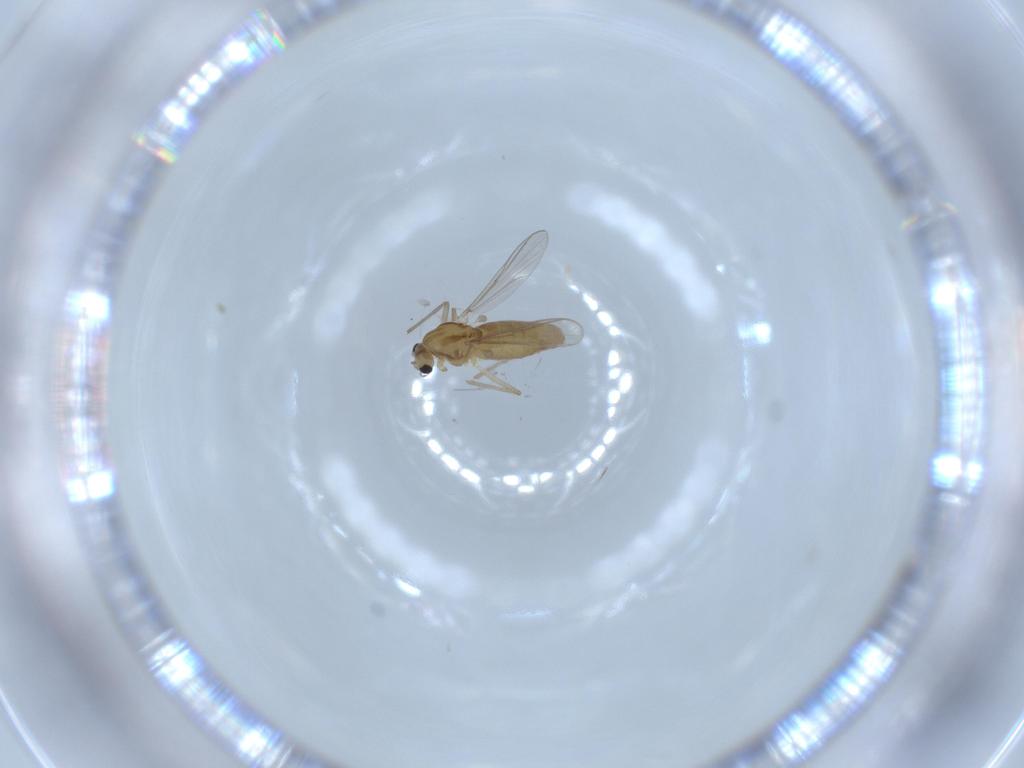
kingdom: Animalia
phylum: Arthropoda
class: Insecta
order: Diptera
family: Chironomidae
